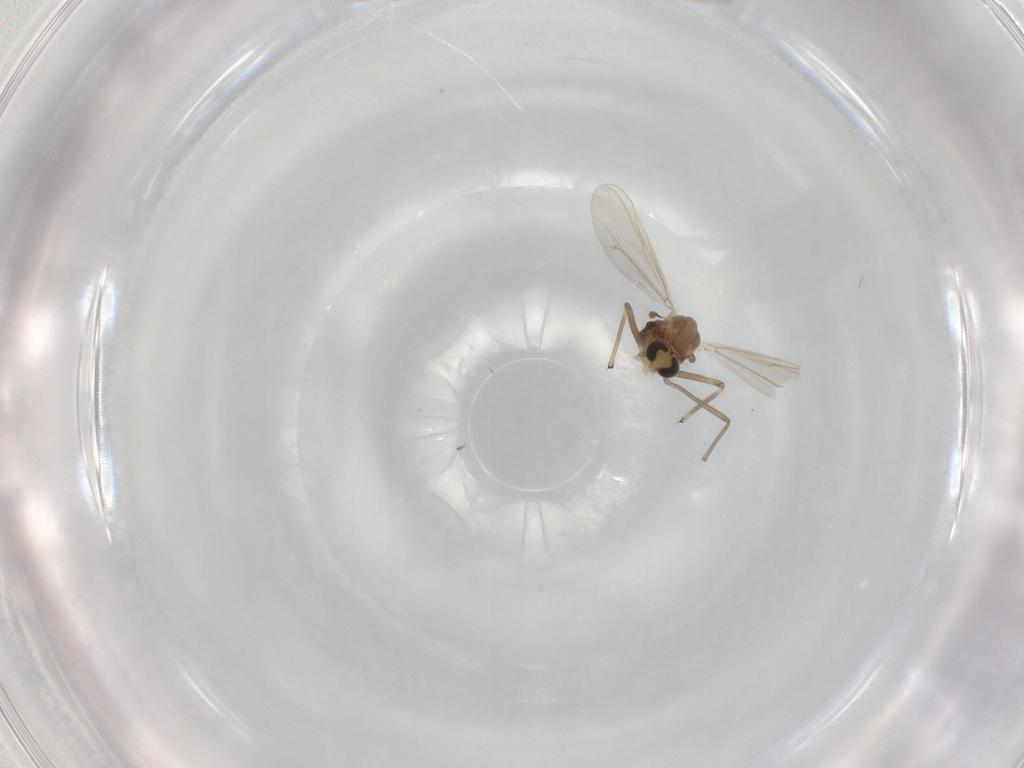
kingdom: Animalia
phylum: Arthropoda
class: Insecta
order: Diptera
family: Chironomidae
